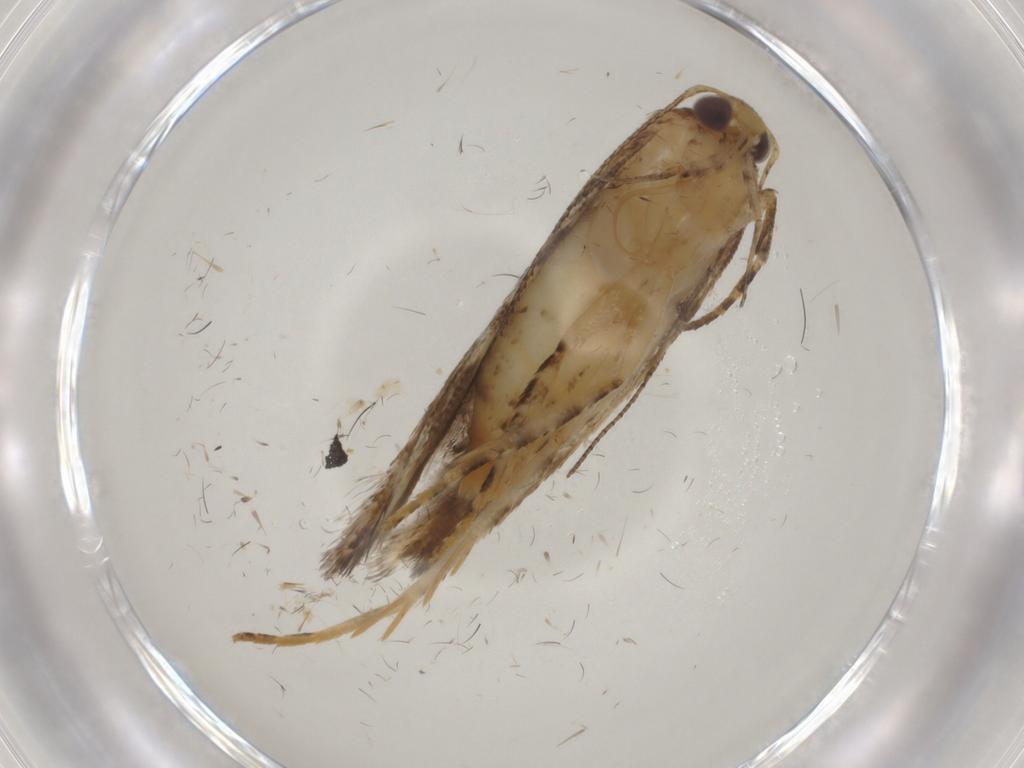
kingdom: Animalia
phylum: Arthropoda
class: Insecta
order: Lepidoptera
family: Gelechiidae
